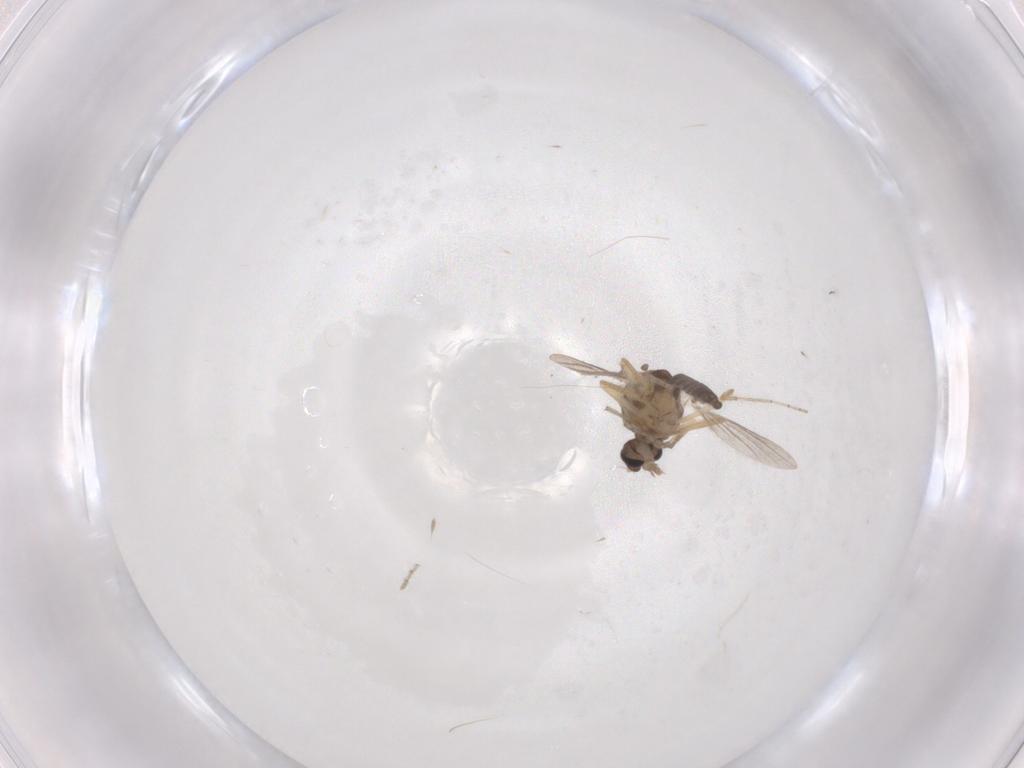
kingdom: Animalia
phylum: Arthropoda
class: Insecta
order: Diptera
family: Ceratopogonidae
